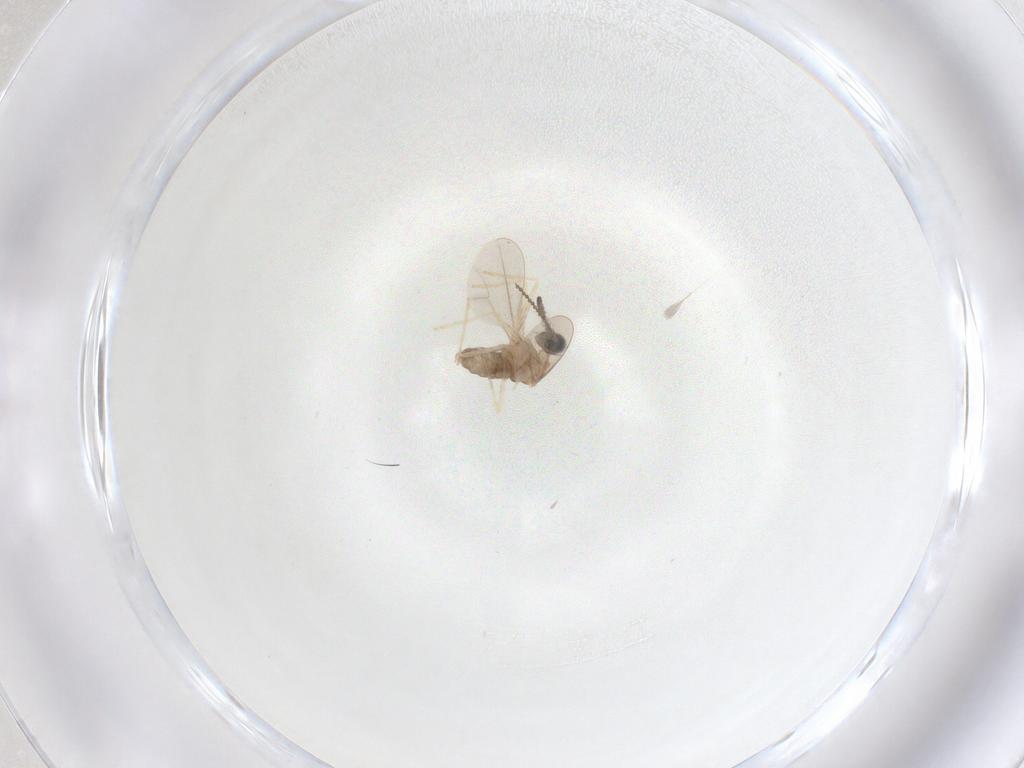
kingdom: Animalia
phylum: Arthropoda
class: Insecta
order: Diptera
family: Cecidomyiidae
